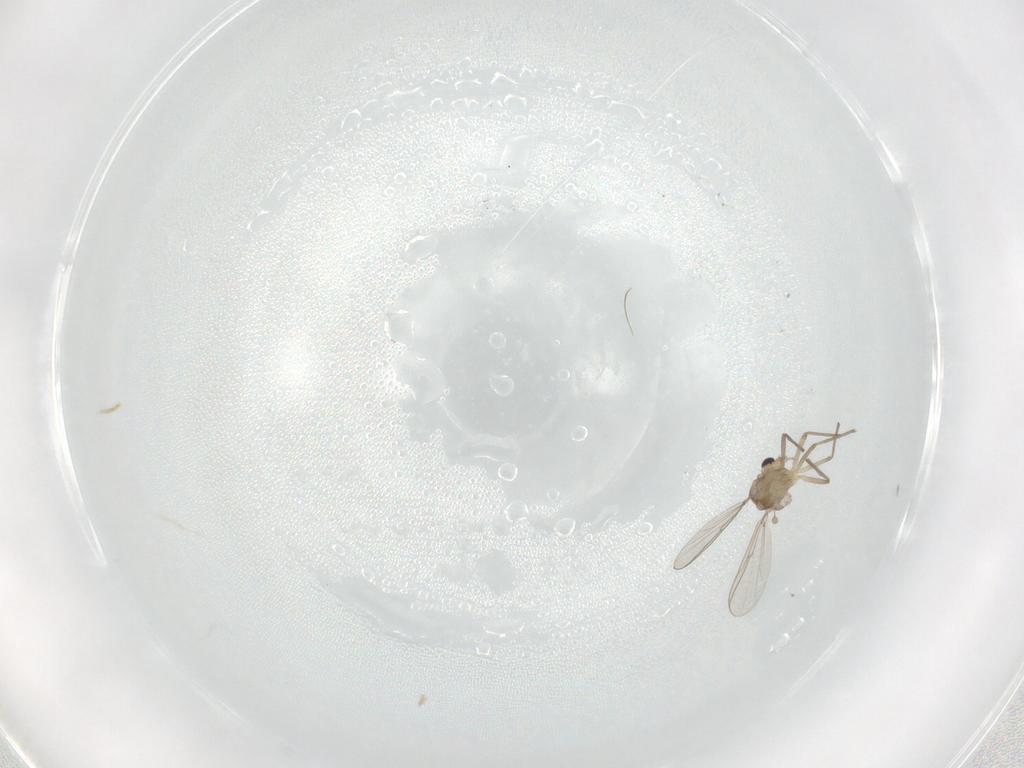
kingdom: Animalia
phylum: Arthropoda
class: Insecta
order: Diptera
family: Chironomidae
